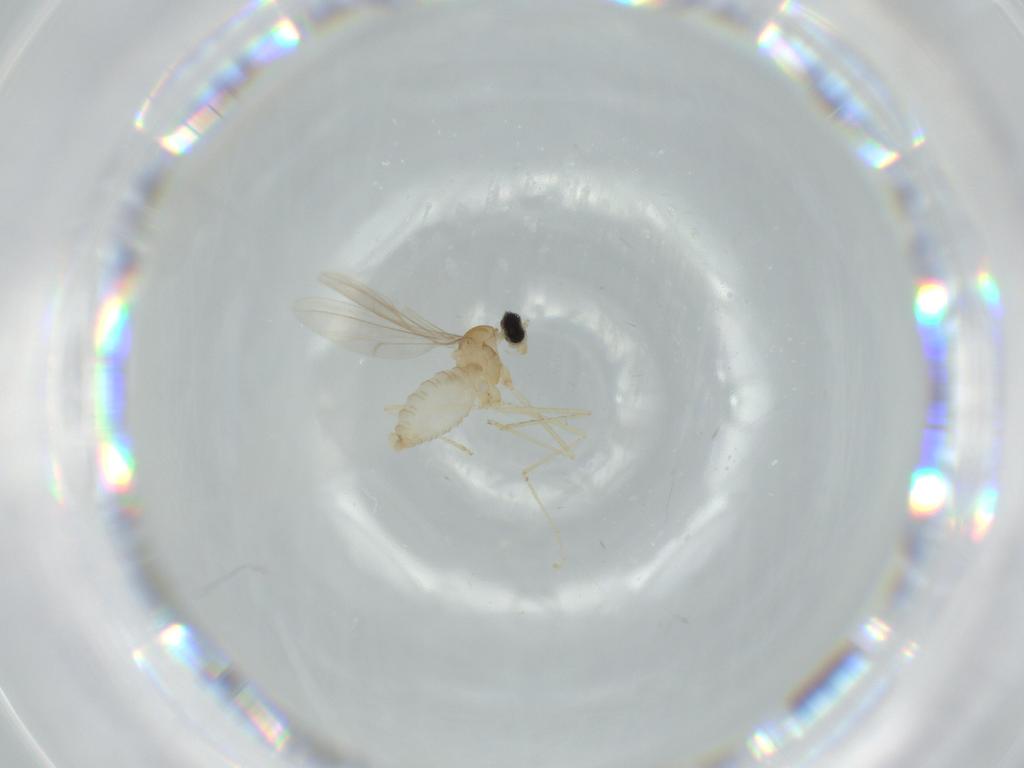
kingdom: Animalia
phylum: Arthropoda
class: Insecta
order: Diptera
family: Cecidomyiidae
